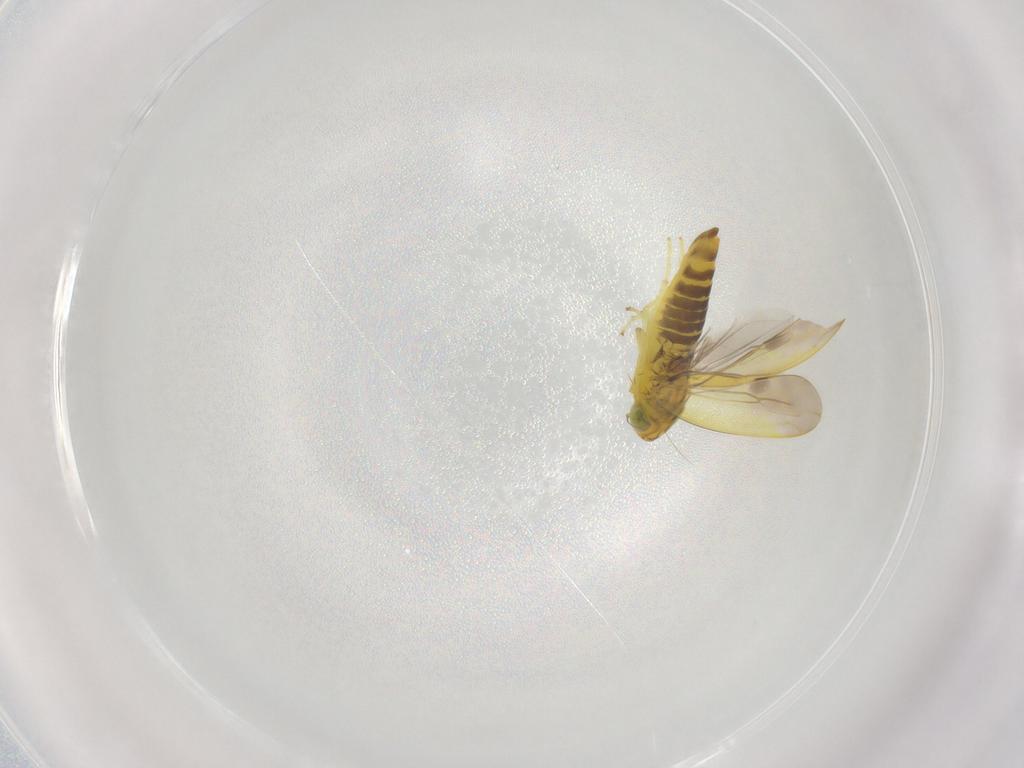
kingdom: Animalia
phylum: Arthropoda
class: Insecta
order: Hemiptera
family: Cicadellidae
